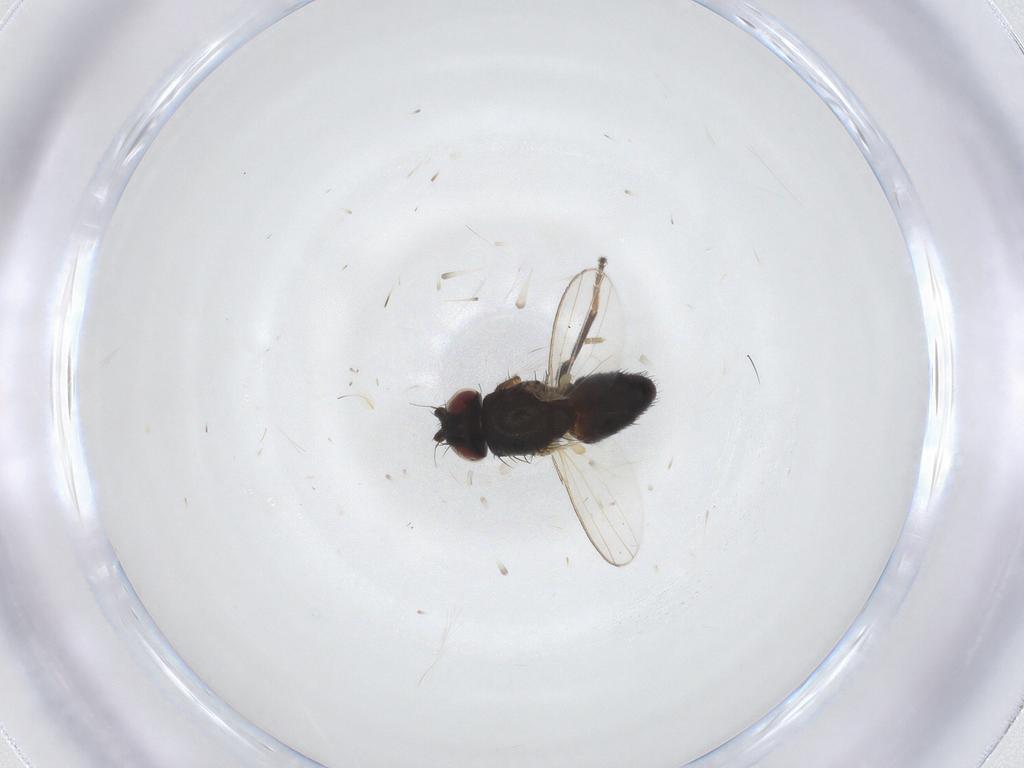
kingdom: Animalia
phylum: Arthropoda
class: Insecta
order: Diptera
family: Milichiidae
